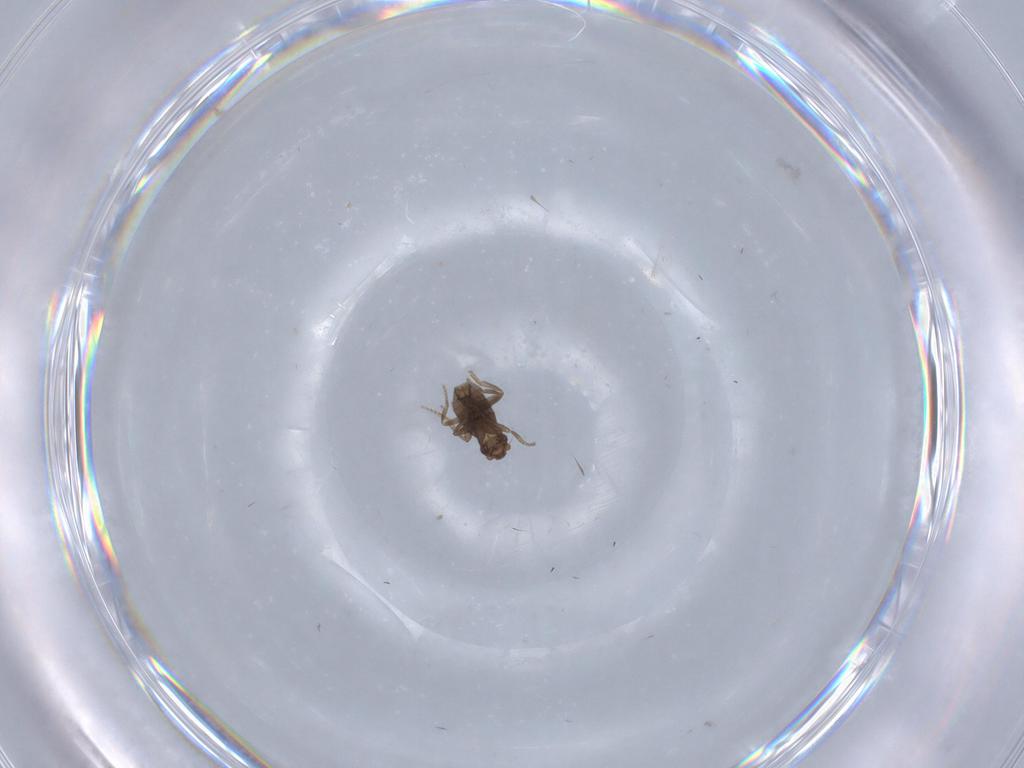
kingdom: Animalia
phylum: Arthropoda
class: Insecta
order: Diptera
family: Phoridae
